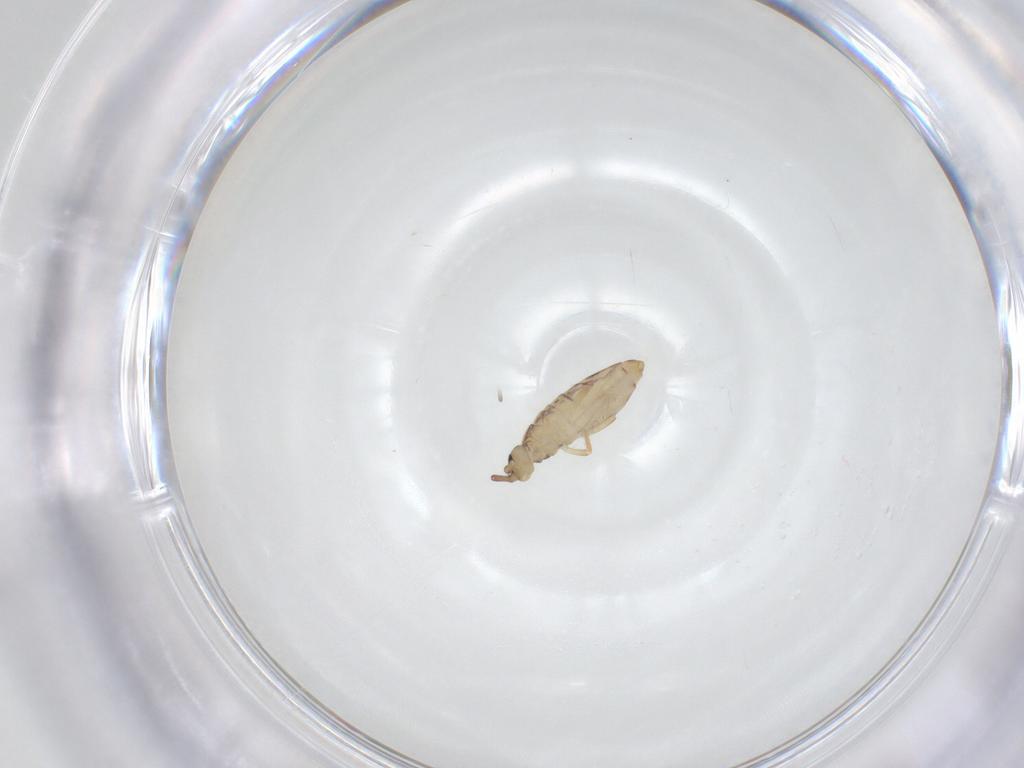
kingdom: Animalia
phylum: Arthropoda
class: Collembola
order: Entomobryomorpha
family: Entomobryidae
